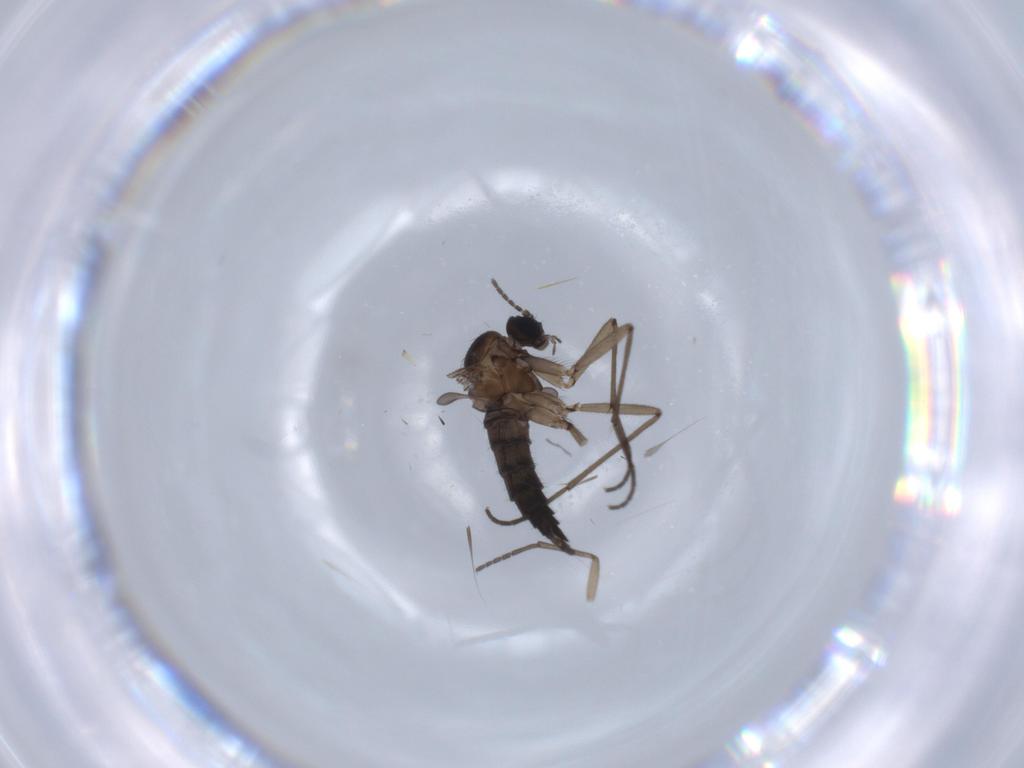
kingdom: Animalia
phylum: Arthropoda
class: Insecta
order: Diptera
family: Sciaridae
